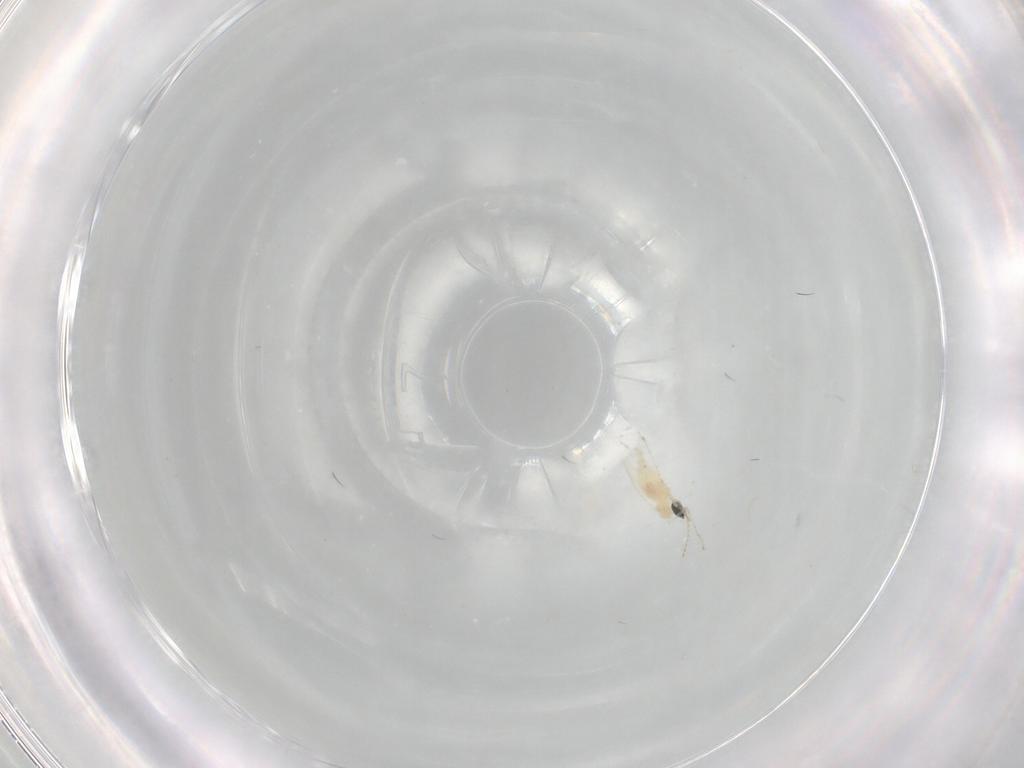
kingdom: Animalia
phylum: Arthropoda
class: Insecta
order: Diptera
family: Cecidomyiidae
